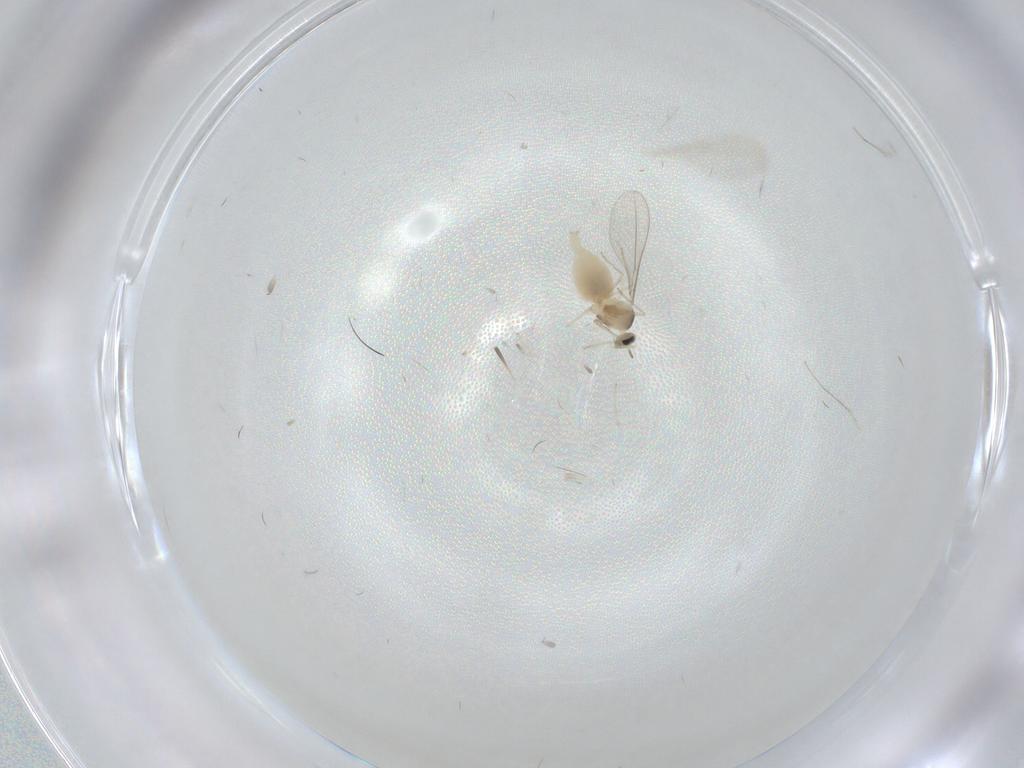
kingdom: Animalia
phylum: Arthropoda
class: Insecta
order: Diptera
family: Cecidomyiidae
